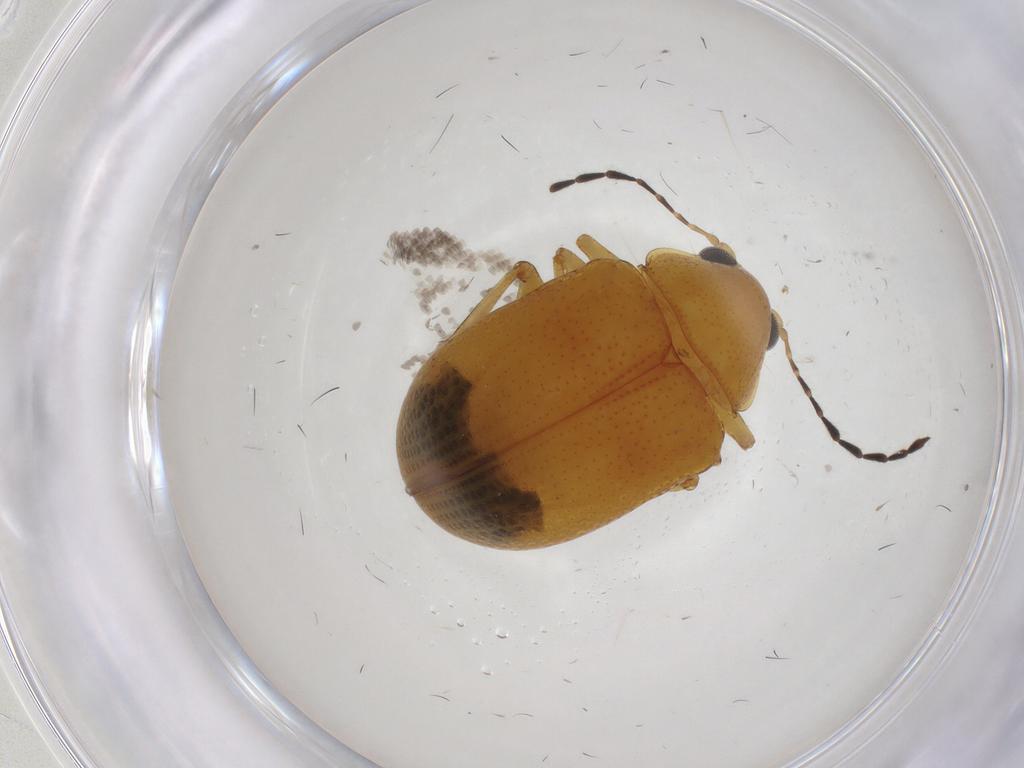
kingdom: Animalia
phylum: Arthropoda
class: Insecta
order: Coleoptera
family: Chrysomelidae
